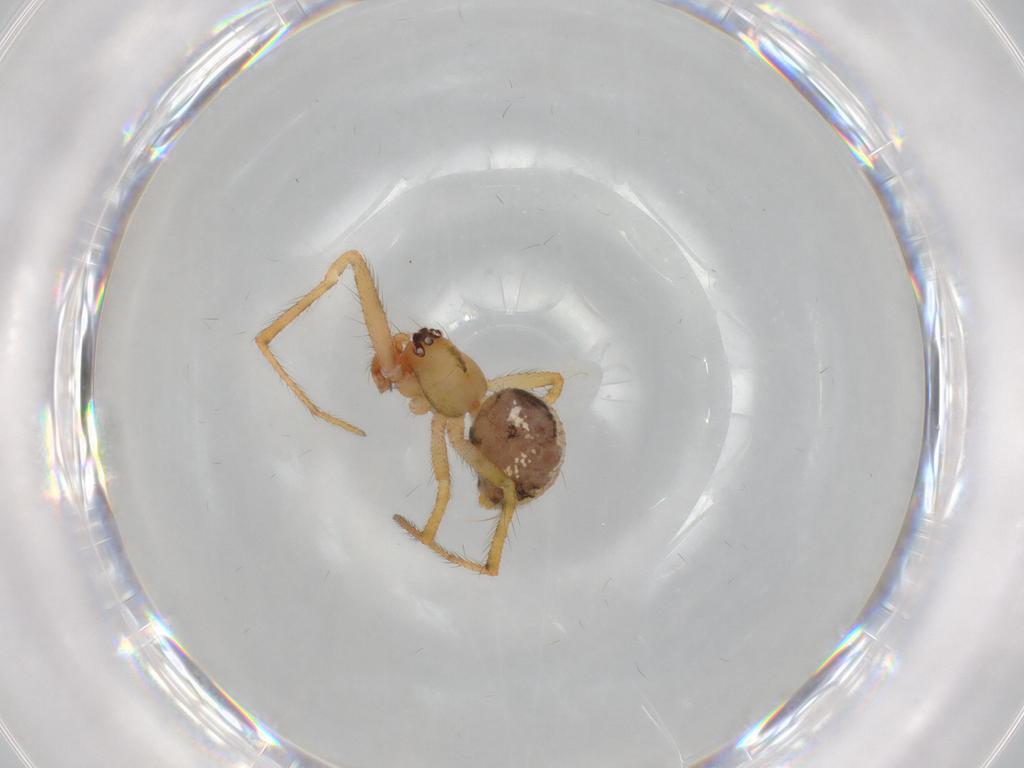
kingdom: Animalia
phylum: Arthropoda
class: Arachnida
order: Araneae
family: Theridiidae
